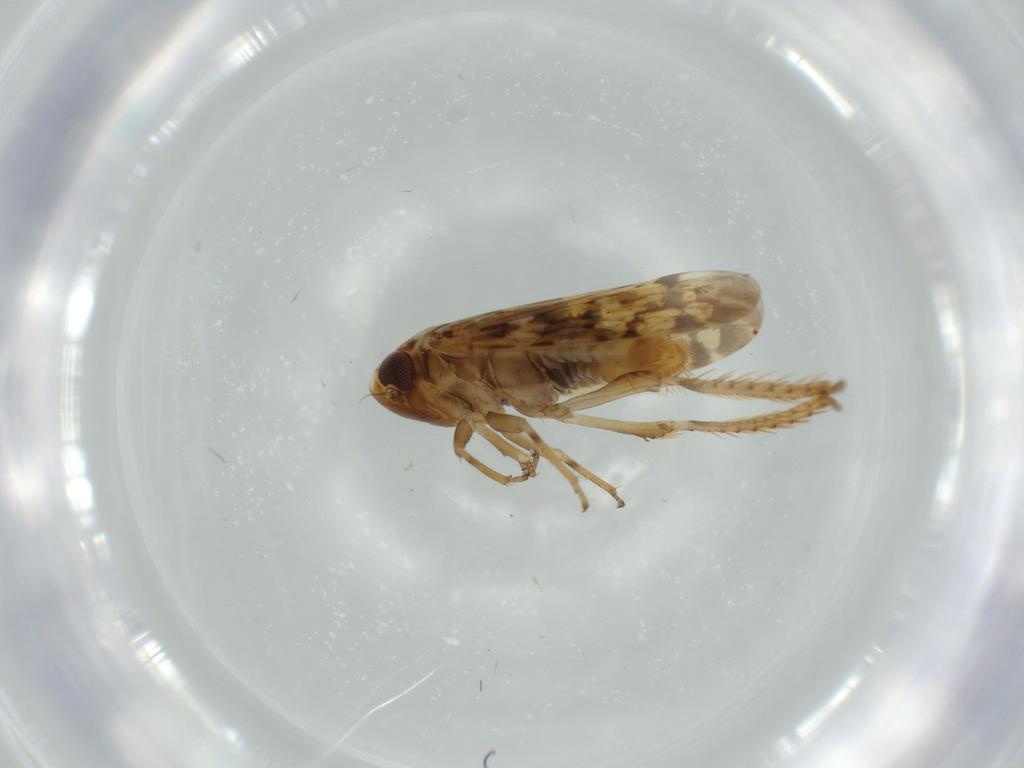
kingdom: Animalia
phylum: Arthropoda
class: Insecta
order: Hemiptera
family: Cicadellidae
